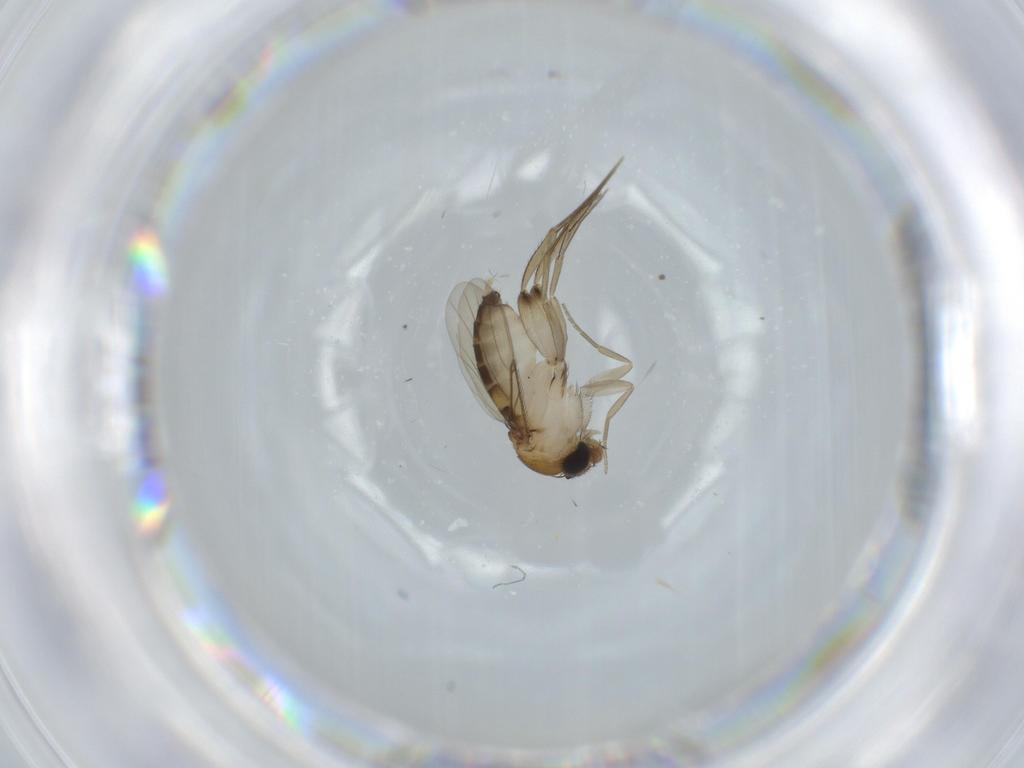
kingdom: Animalia
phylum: Arthropoda
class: Insecta
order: Diptera
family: Phoridae
